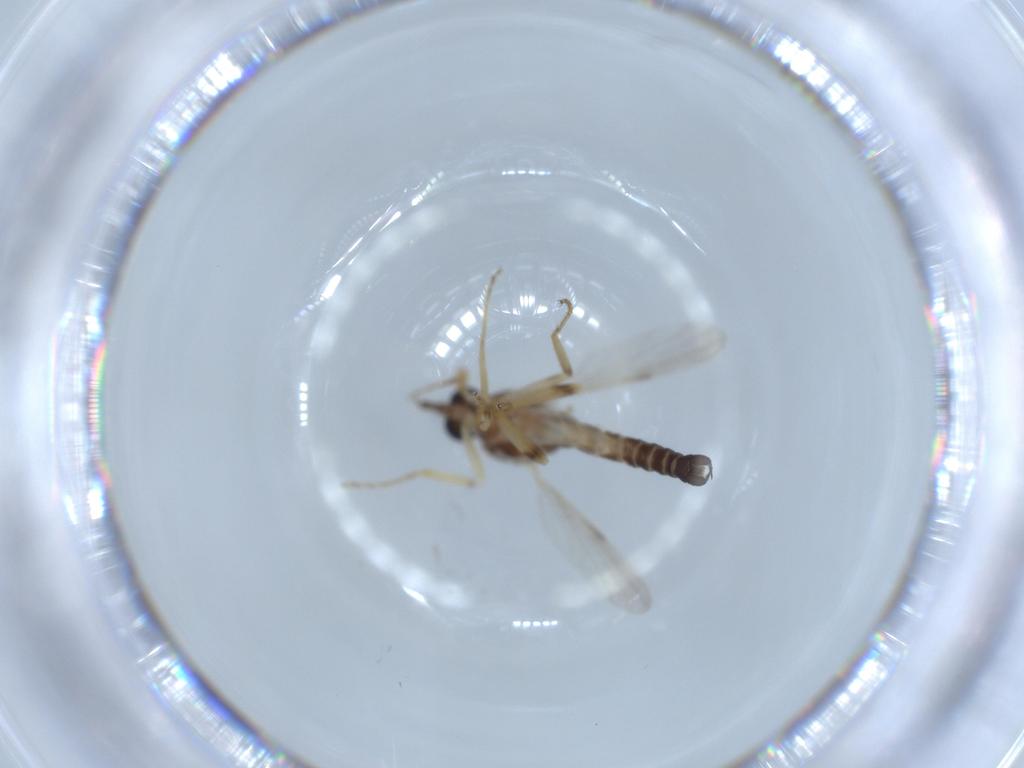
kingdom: Animalia
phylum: Arthropoda
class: Insecta
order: Diptera
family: Ceratopogonidae
